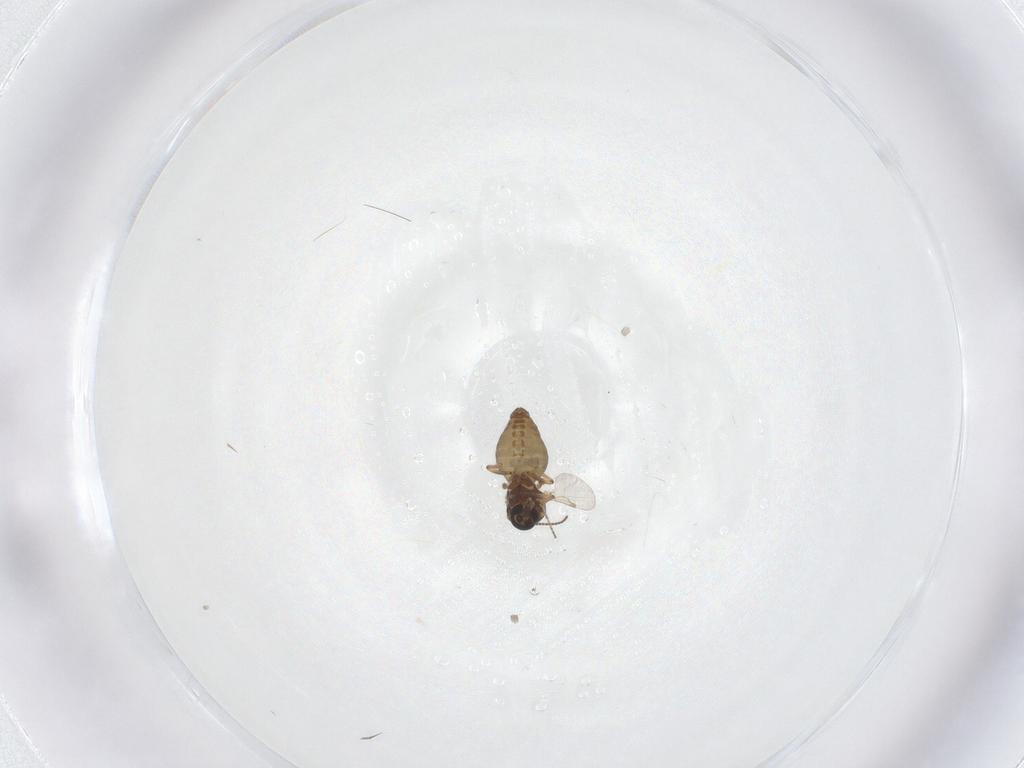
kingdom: Animalia
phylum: Arthropoda
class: Insecta
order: Diptera
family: Ceratopogonidae
